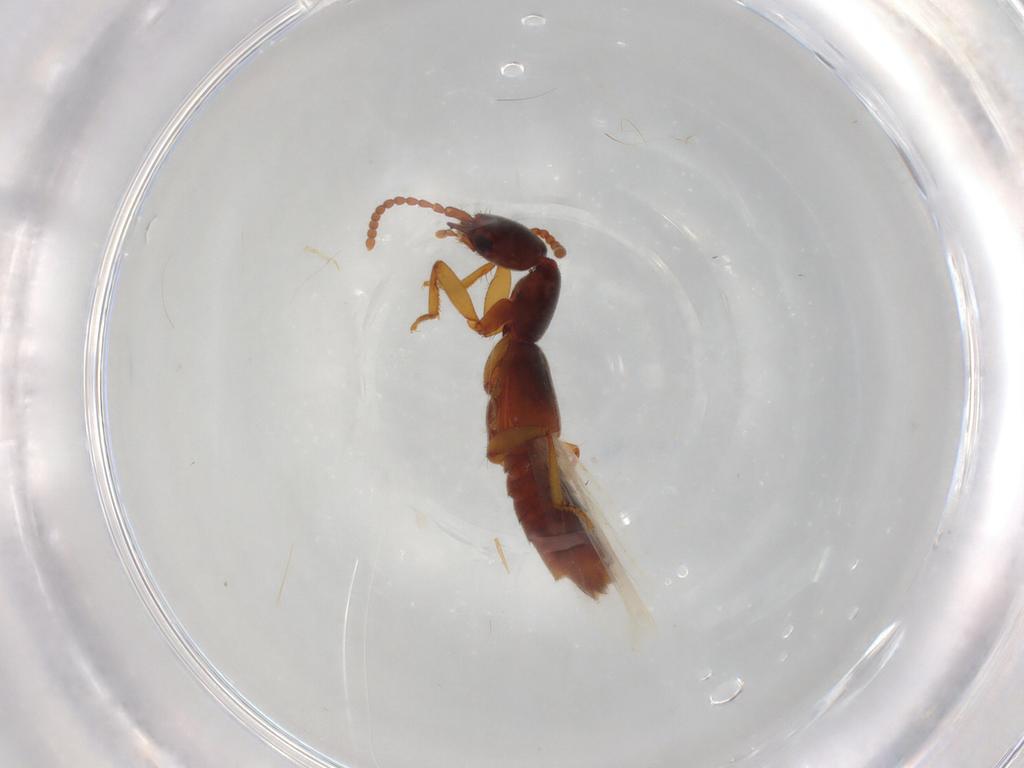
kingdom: Animalia
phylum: Arthropoda
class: Insecta
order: Coleoptera
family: Staphylinidae
